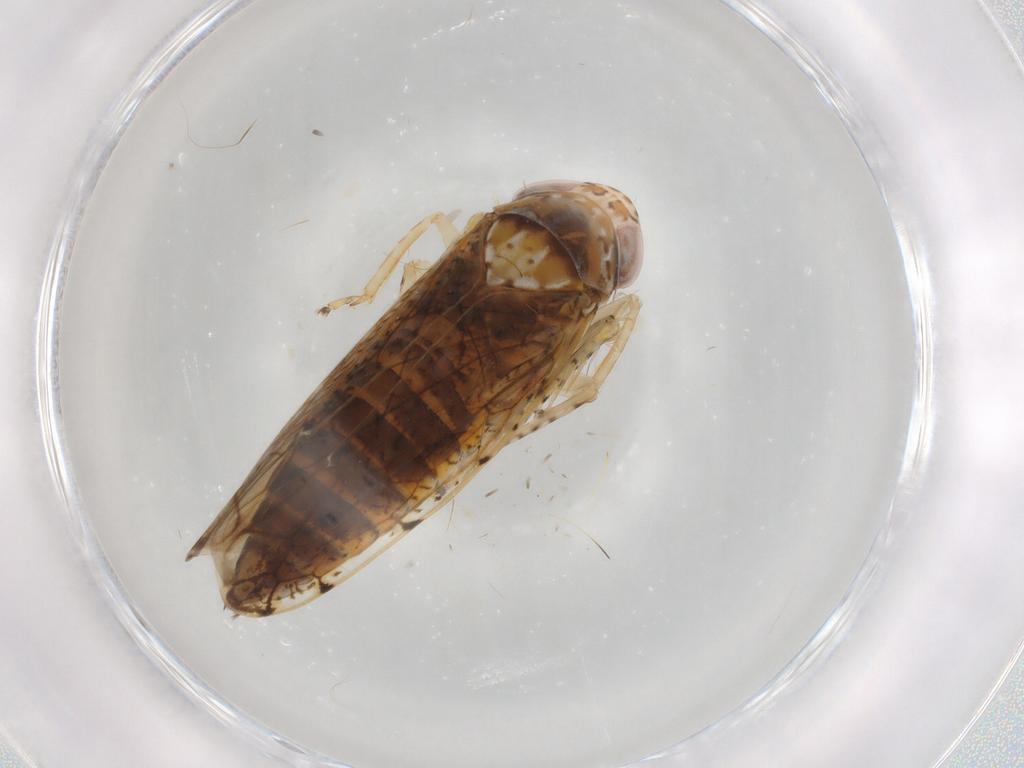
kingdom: Animalia
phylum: Arthropoda
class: Insecta
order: Hemiptera
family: Cicadellidae
